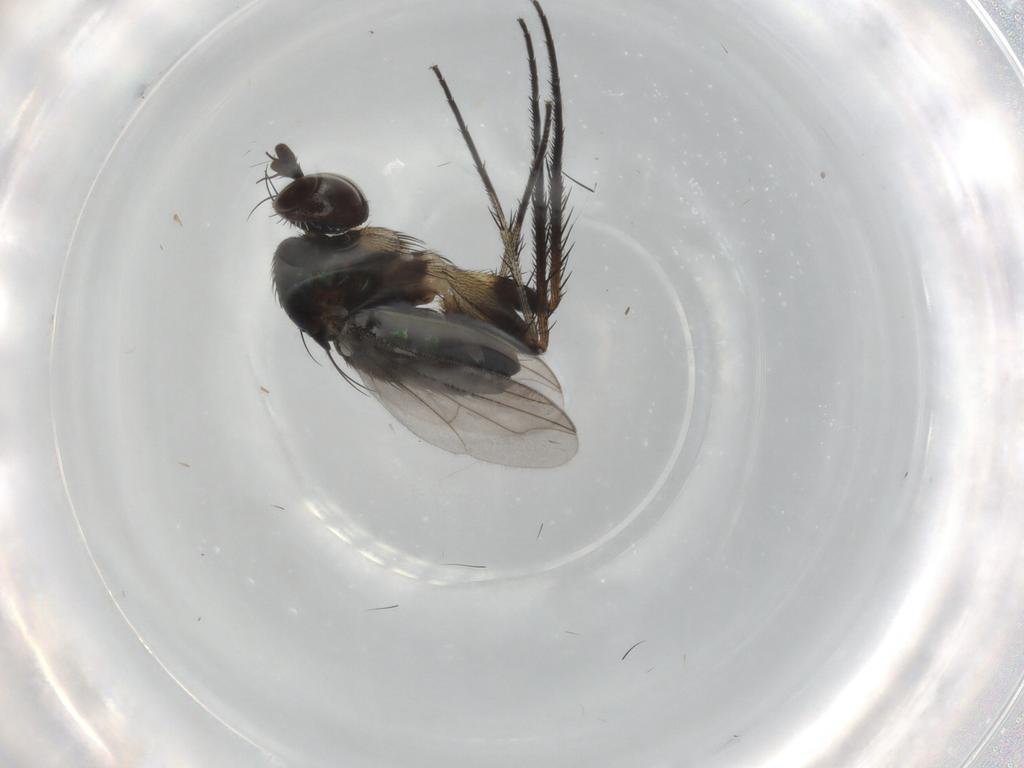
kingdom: Animalia
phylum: Arthropoda
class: Insecta
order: Diptera
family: Dolichopodidae
